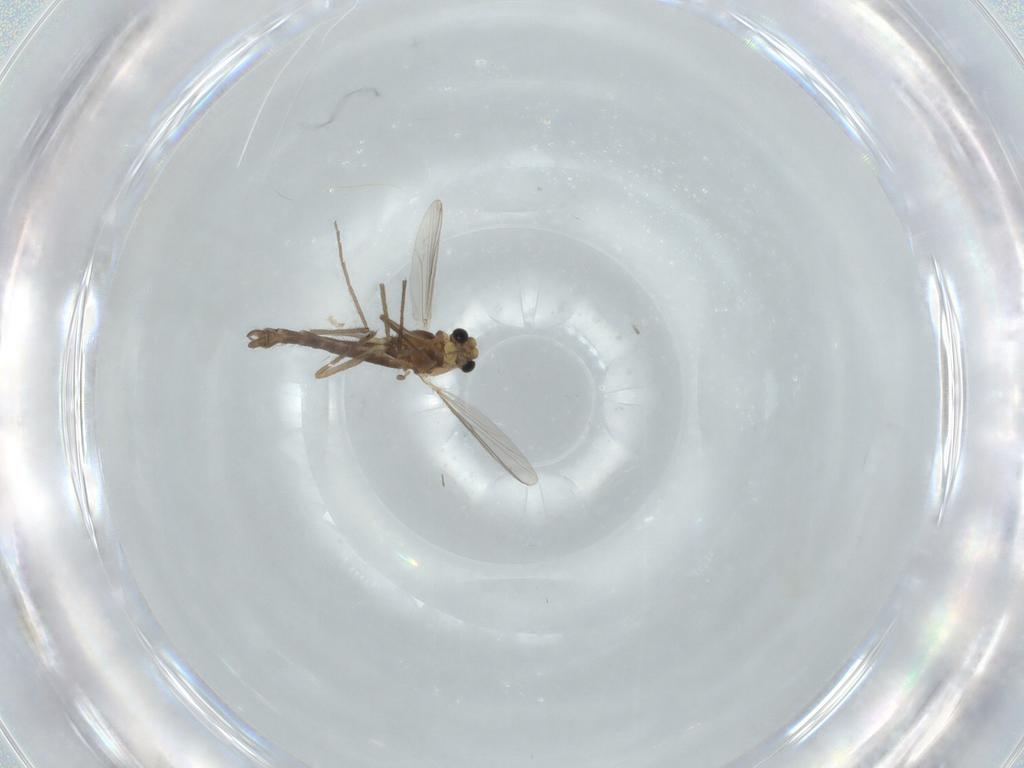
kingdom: Animalia
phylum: Arthropoda
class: Insecta
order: Diptera
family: Chironomidae
